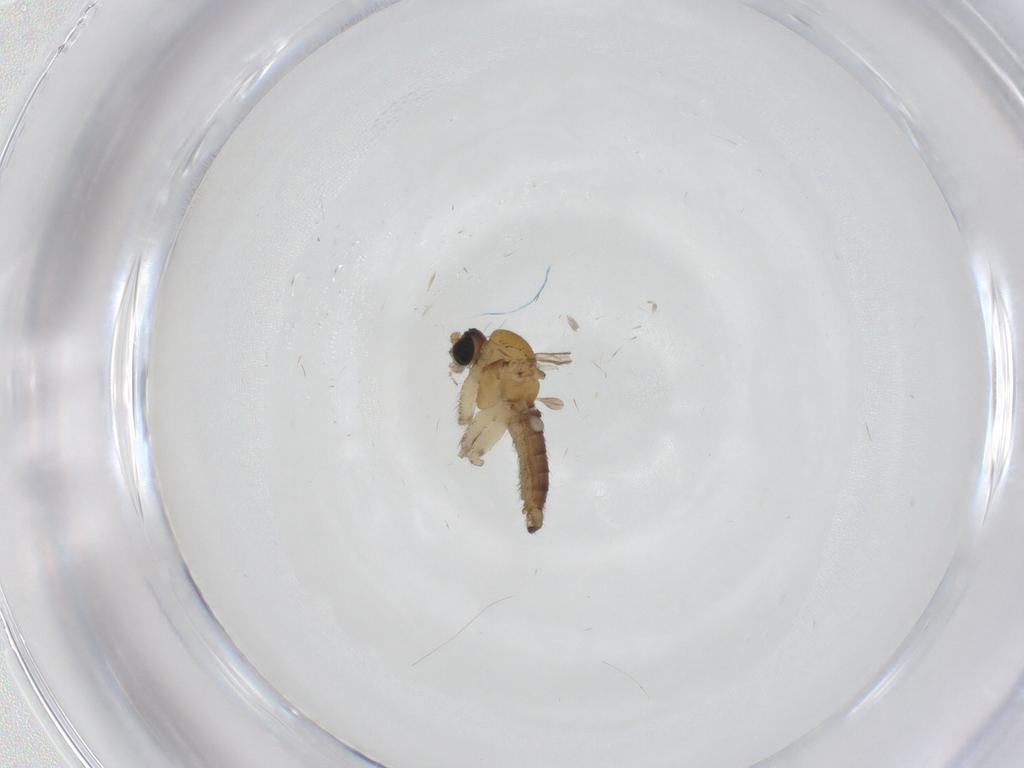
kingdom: Animalia
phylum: Arthropoda
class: Insecta
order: Diptera
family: Sciaridae
